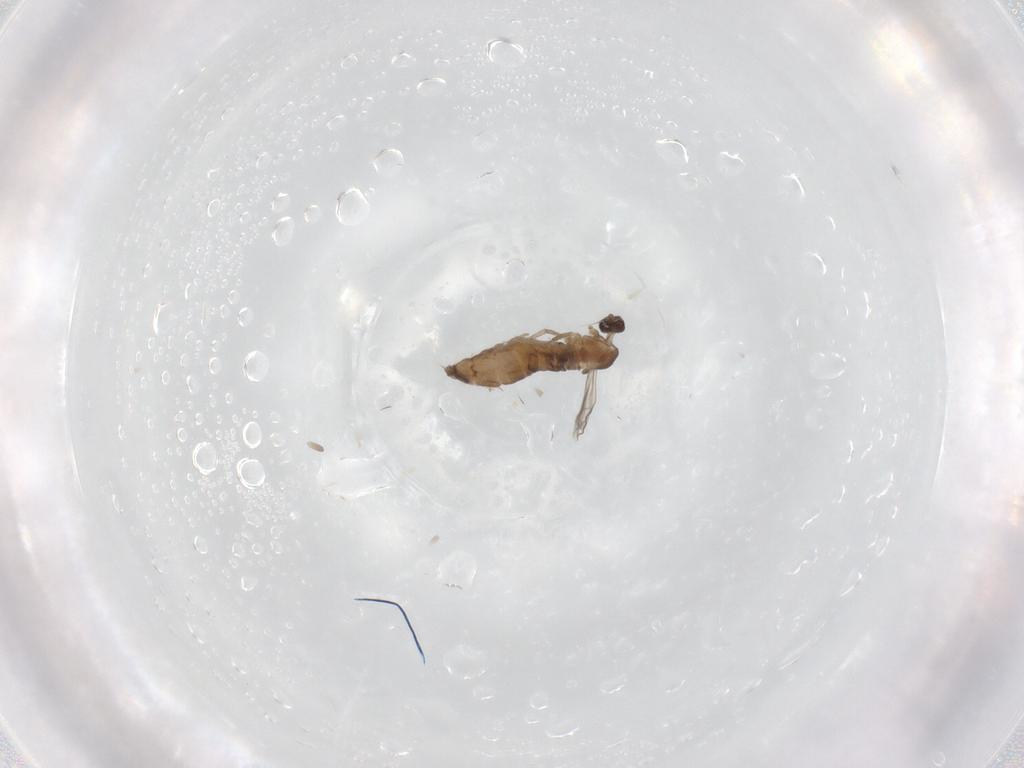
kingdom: Animalia
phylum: Arthropoda
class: Insecta
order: Diptera
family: Cecidomyiidae
